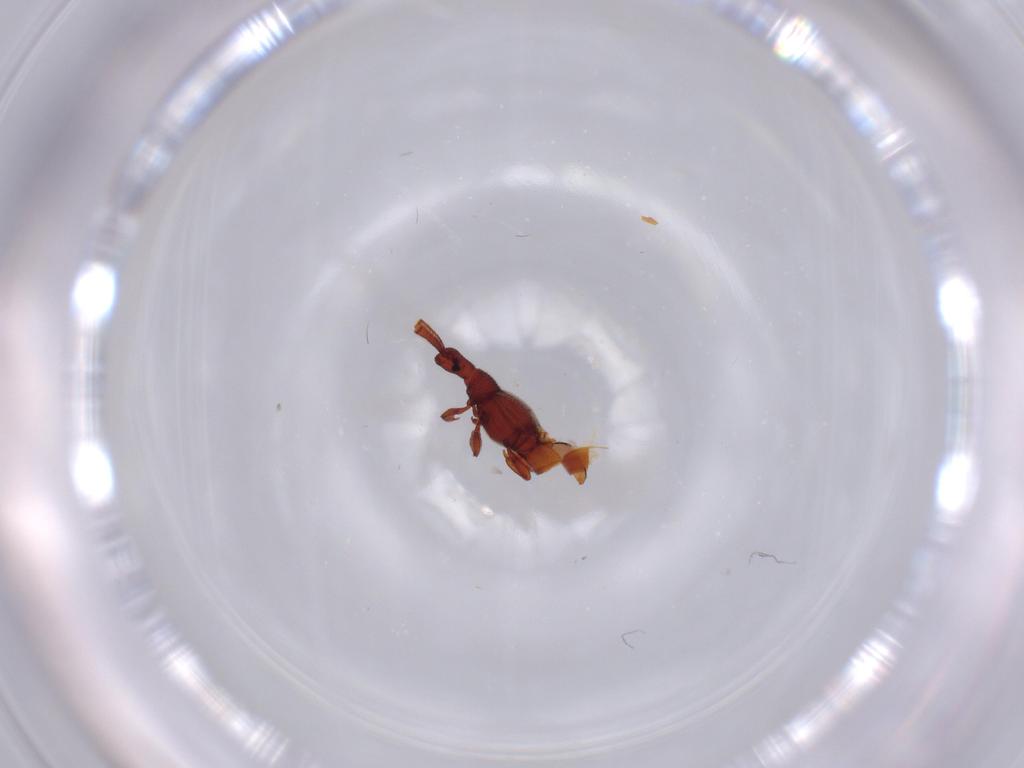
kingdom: Animalia
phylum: Arthropoda
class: Insecta
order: Coleoptera
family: Staphylinidae
